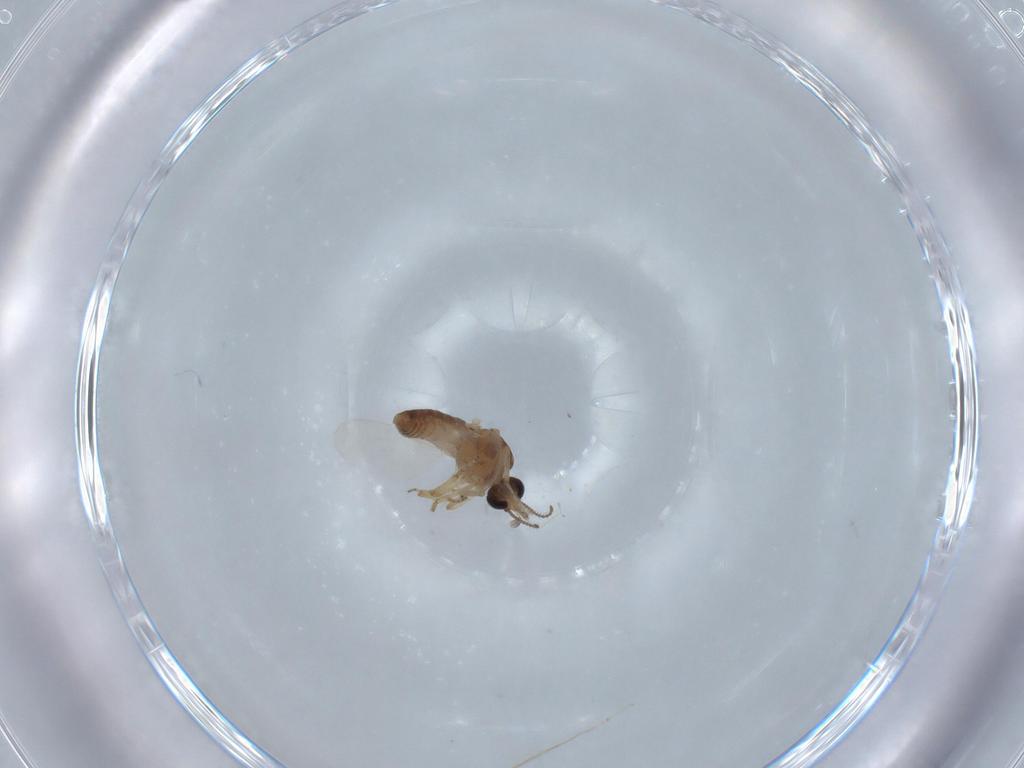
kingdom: Animalia
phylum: Arthropoda
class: Insecta
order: Diptera
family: Ceratopogonidae
